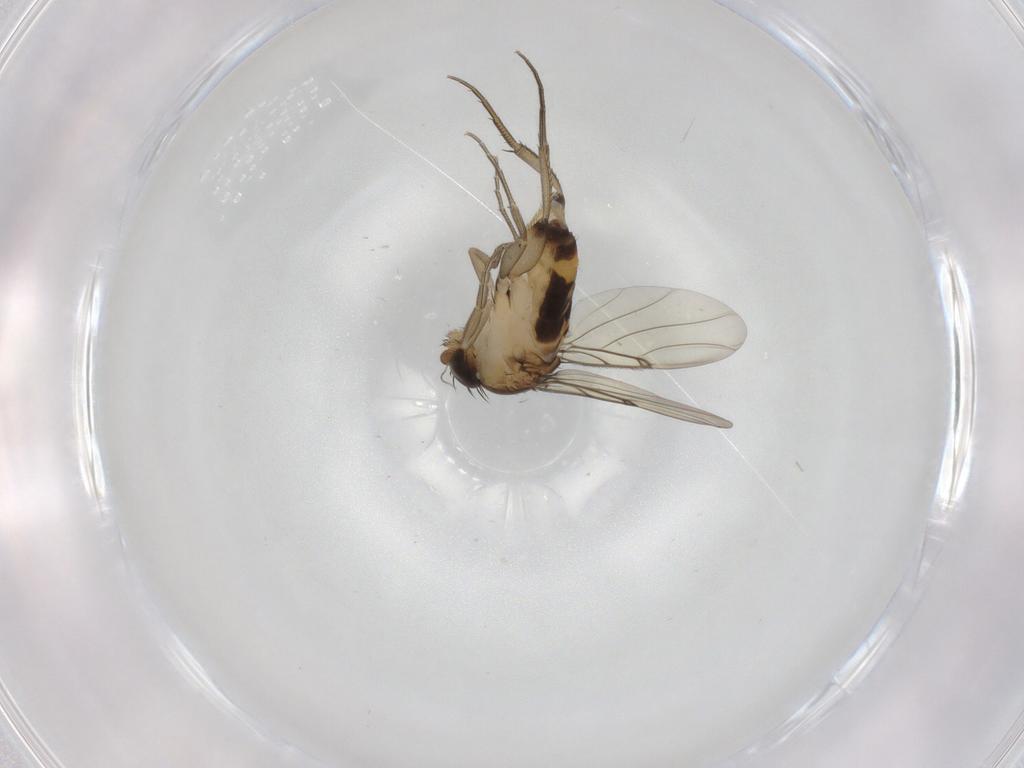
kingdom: Animalia
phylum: Arthropoda
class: Insecta
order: Diptera
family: Phoridae
